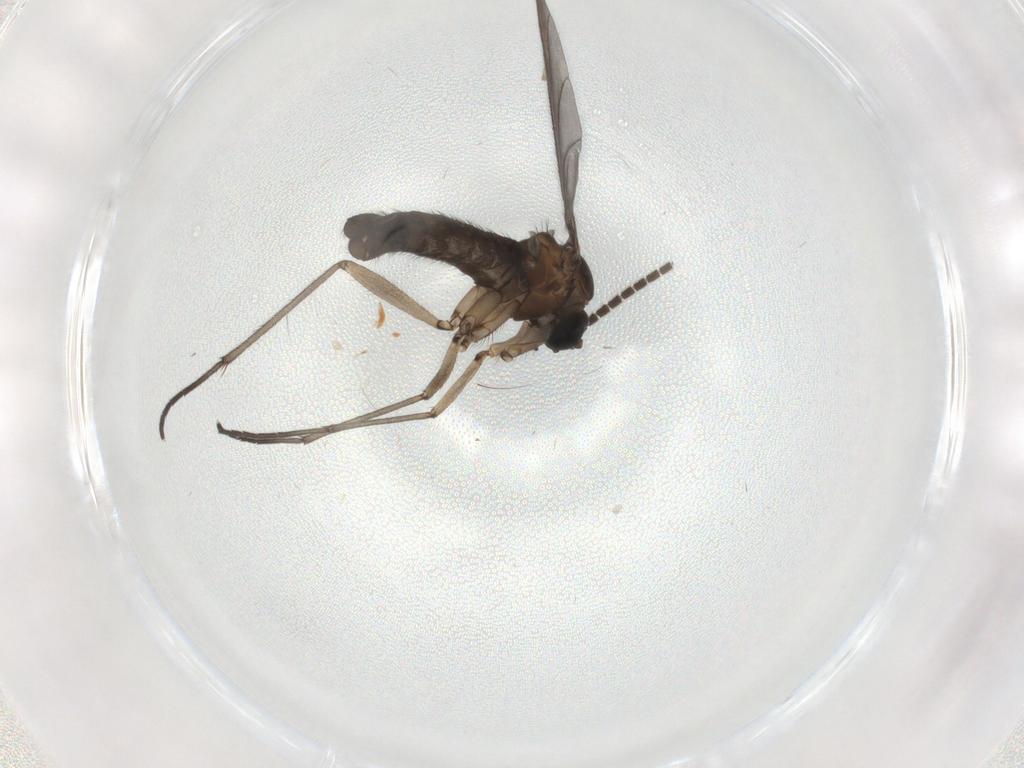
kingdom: Animalia
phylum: Arthropoda
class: Insecta
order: Diptera
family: Sciaridae
